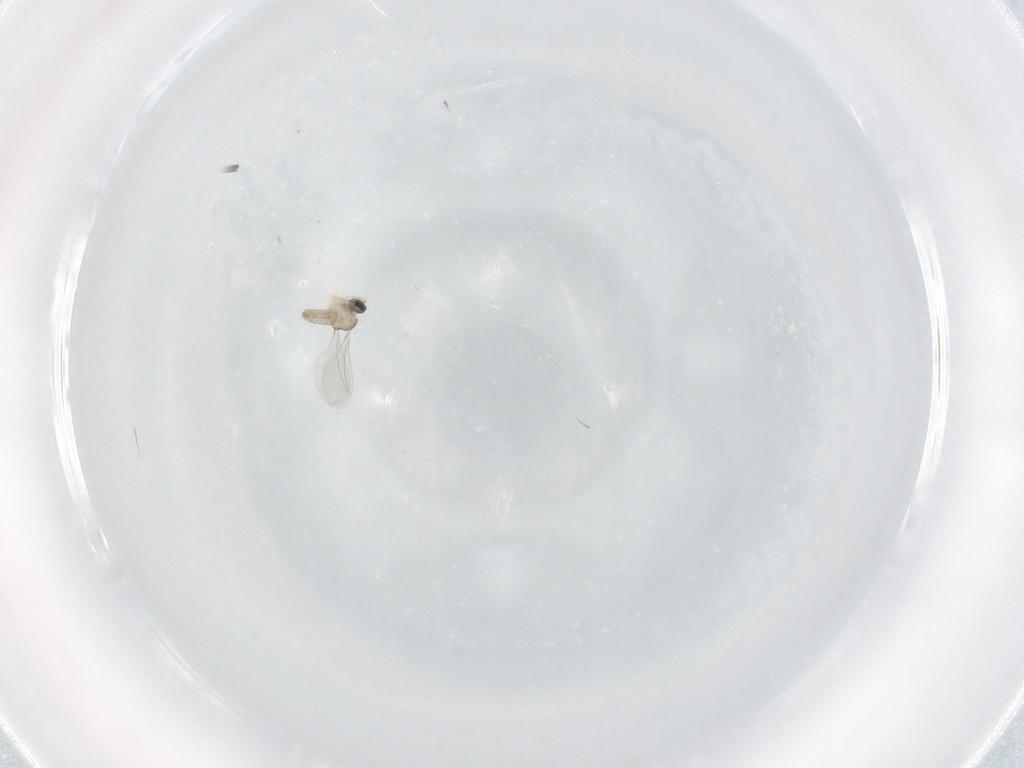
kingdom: Animalia
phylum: Arthropoda
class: Insecta
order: Diptera
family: Cecidomyiidae
